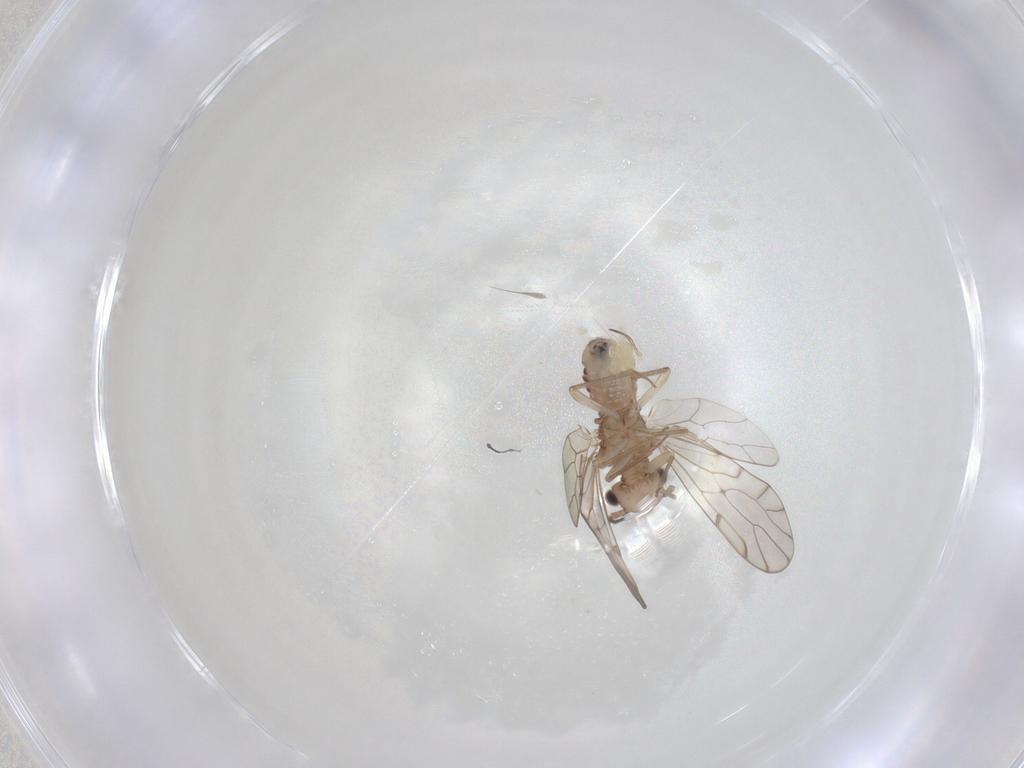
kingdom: Animalia
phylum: Arthropoda
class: Arachnida
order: Mesostigmata
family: Laelapidae
